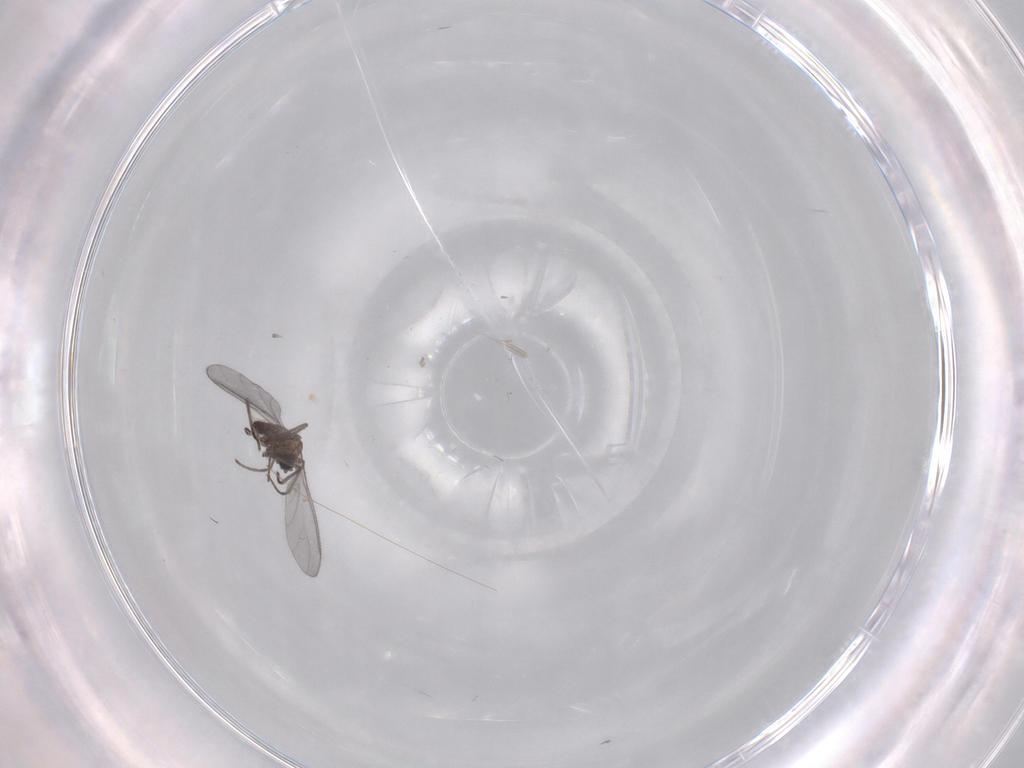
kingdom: Animalia
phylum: Arthropoda
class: Insecta
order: Diptera
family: Sciaridae
